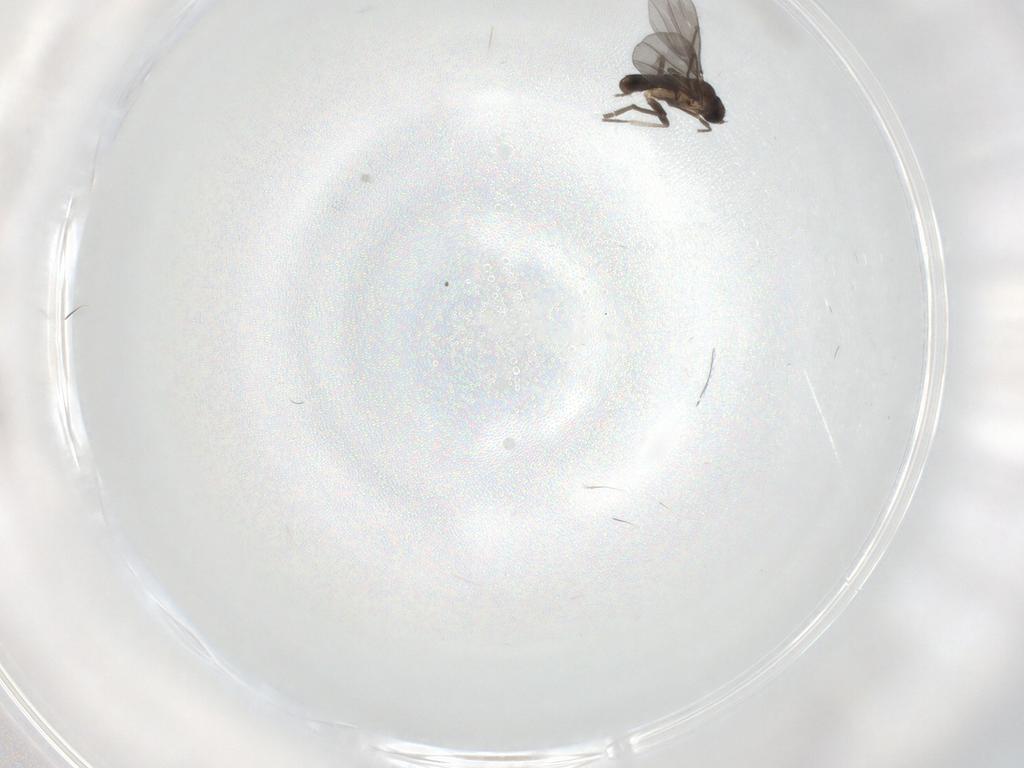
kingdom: Animalia
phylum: Arthropoda
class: Insecta
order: Diptera
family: Phoridae
